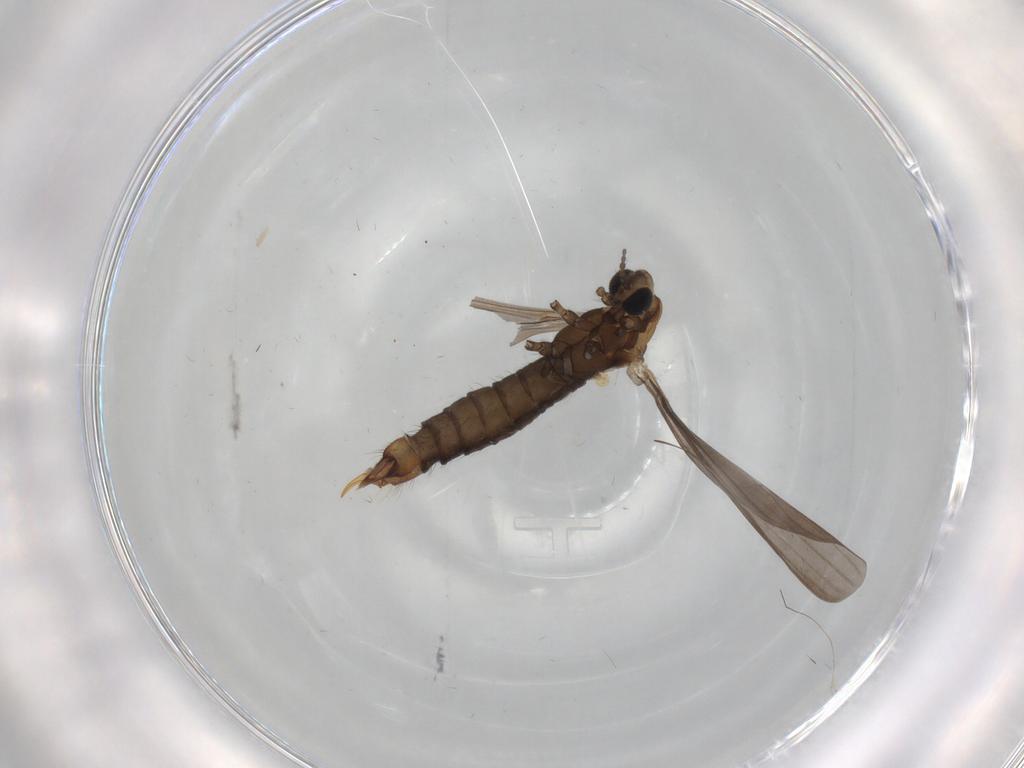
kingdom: Animalia
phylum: Arthropoda
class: Insecta
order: Diptera
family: Cecidomyiidae
